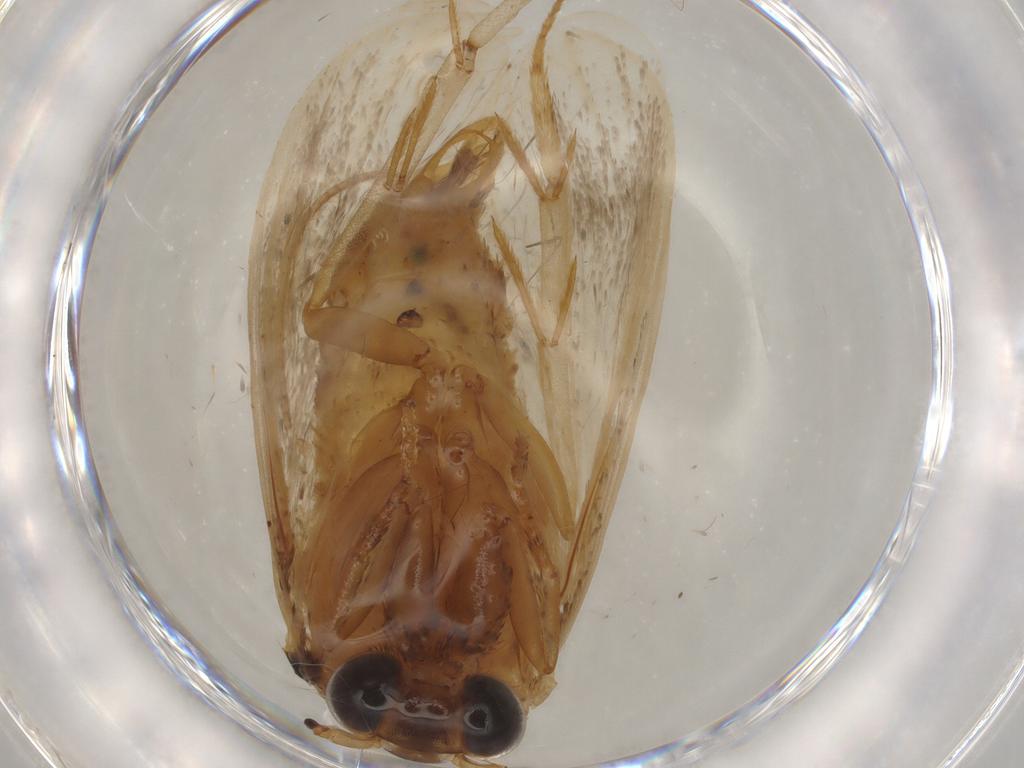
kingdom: Animalia
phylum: Arthropoda
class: Insecta
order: Lepidoptera
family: Eriocottidae
